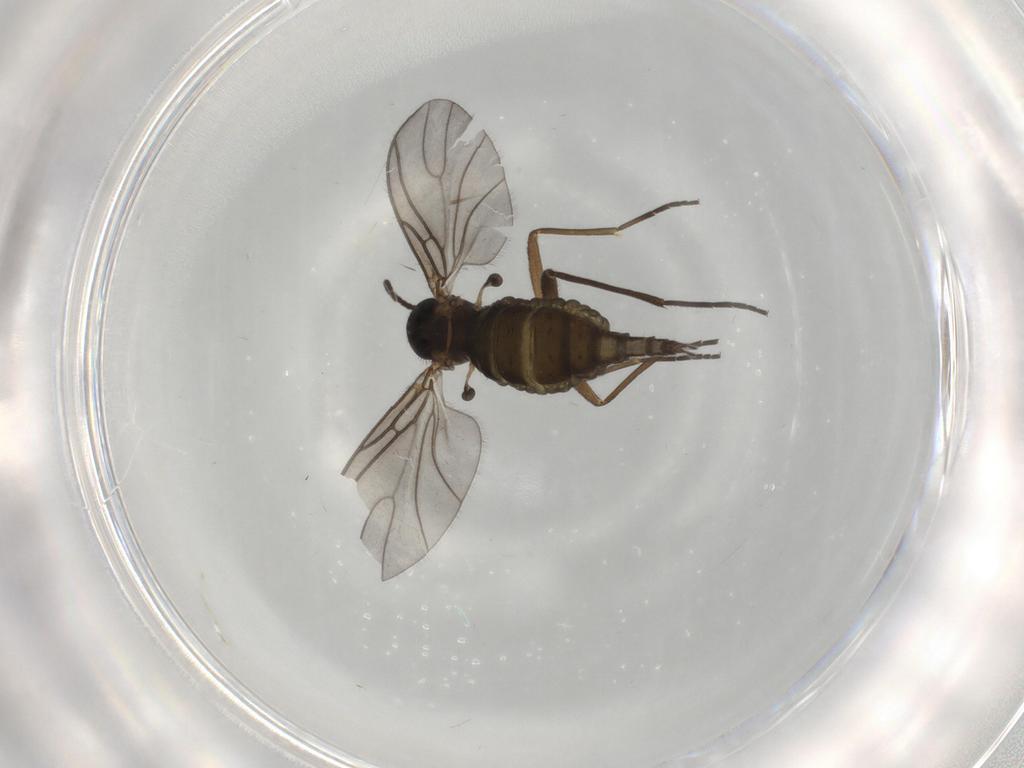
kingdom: Animalia
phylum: Arthropoda
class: Insecta
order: Diptera
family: Sciaridae
